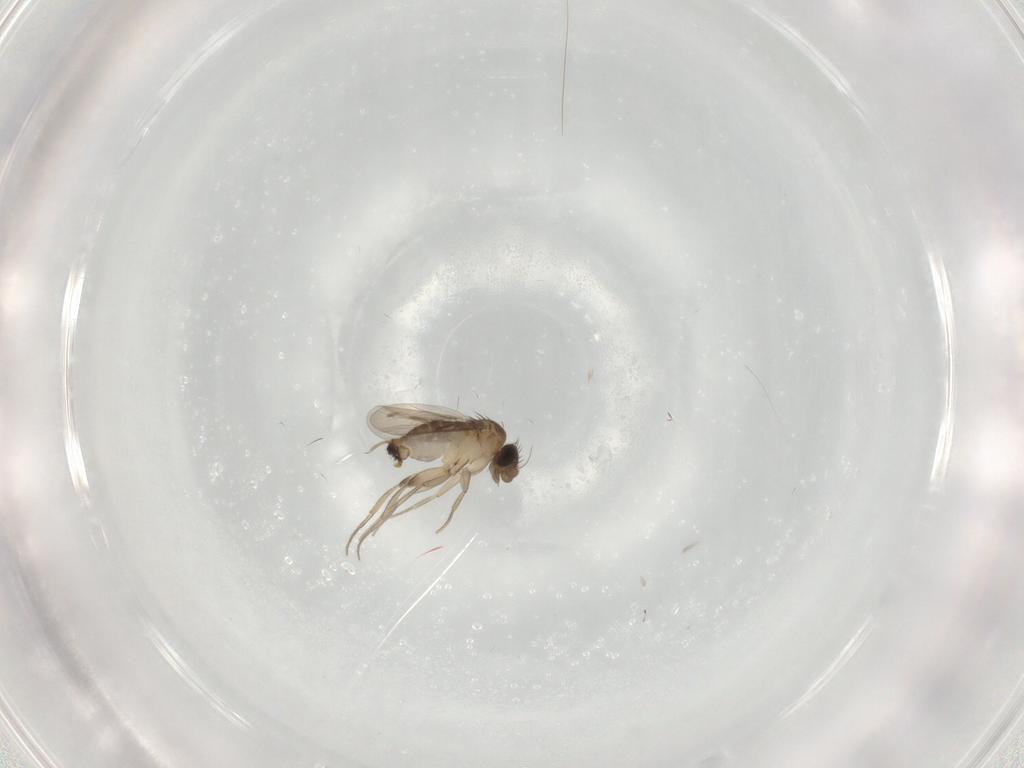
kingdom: Animalia
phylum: Arthropoda
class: Insecta
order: Diptera
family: Phoridae
